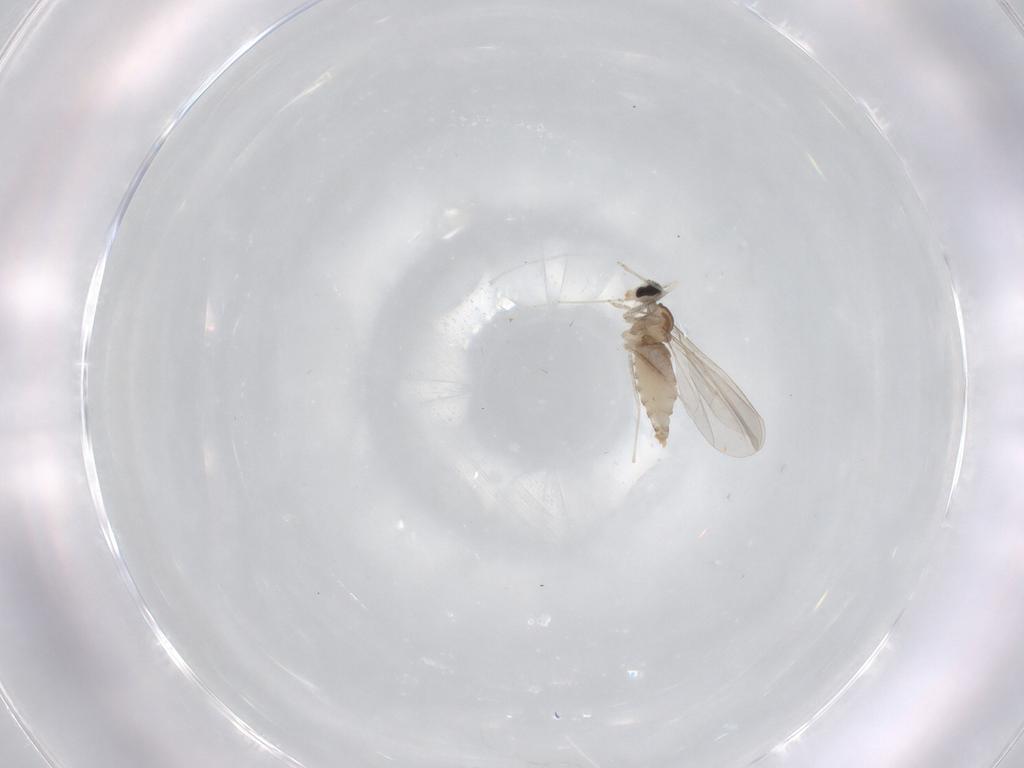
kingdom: Animalia
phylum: Arthropoda
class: Insecta
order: Diptera
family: Cecidomyiidae
